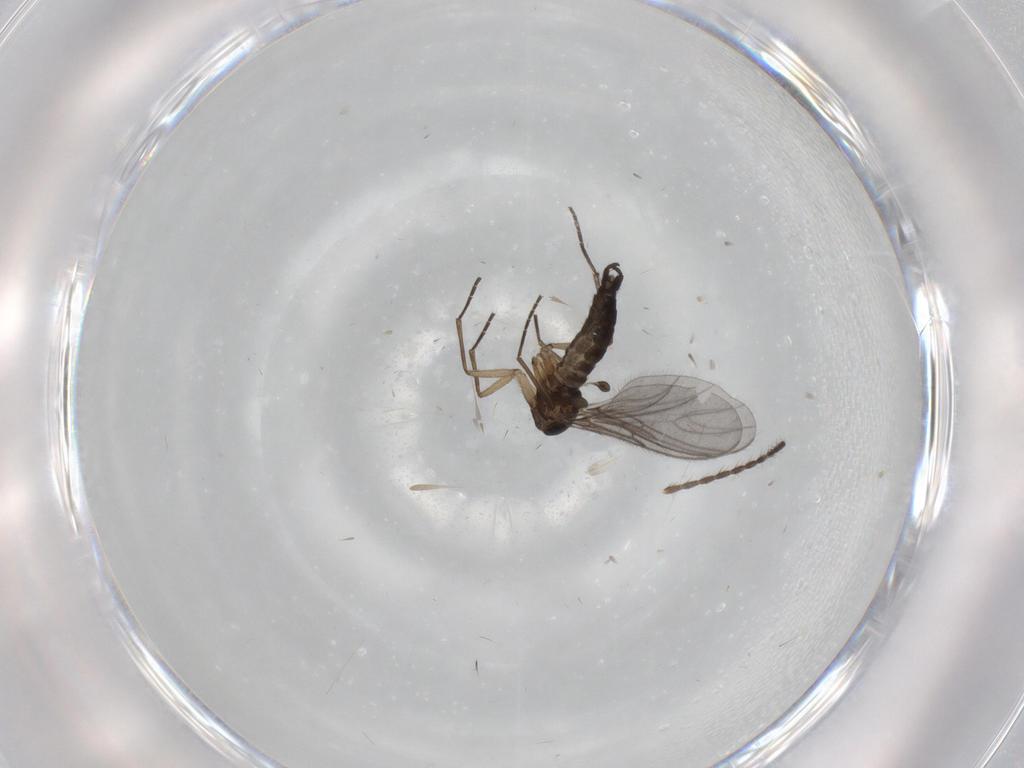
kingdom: Animalia
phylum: Arthropoda
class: Insecta
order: Diptera
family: Sciaridae
